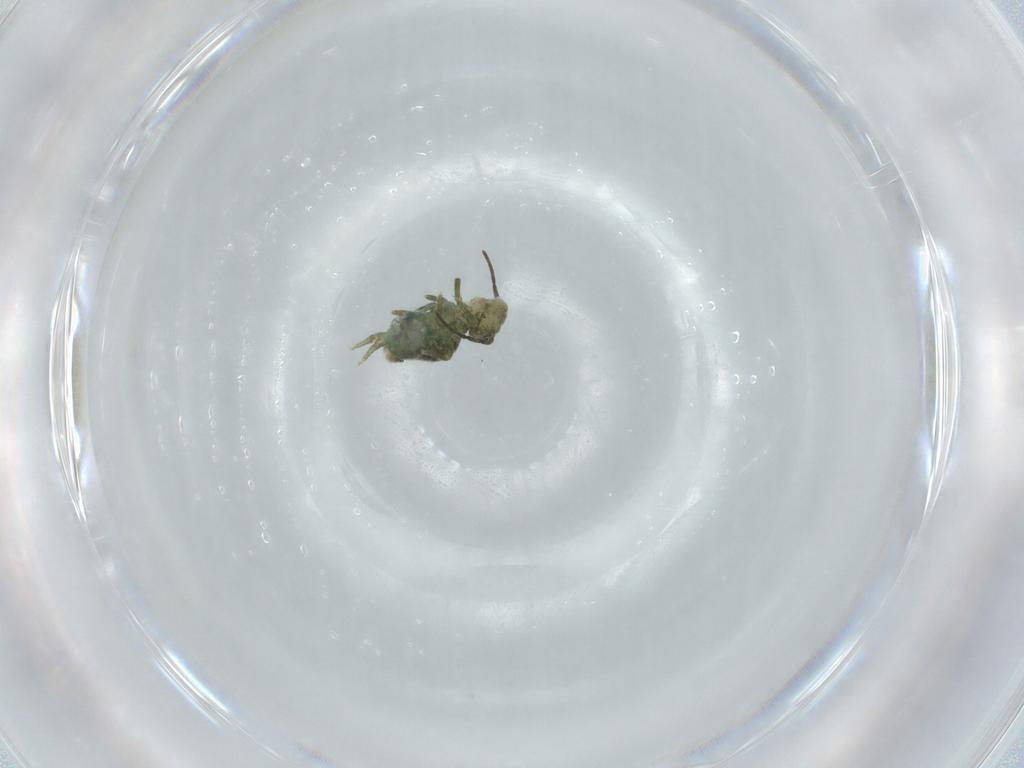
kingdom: Animalia
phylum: Arthropoda
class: Collembola
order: Symphypleona
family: Sminthuridae
